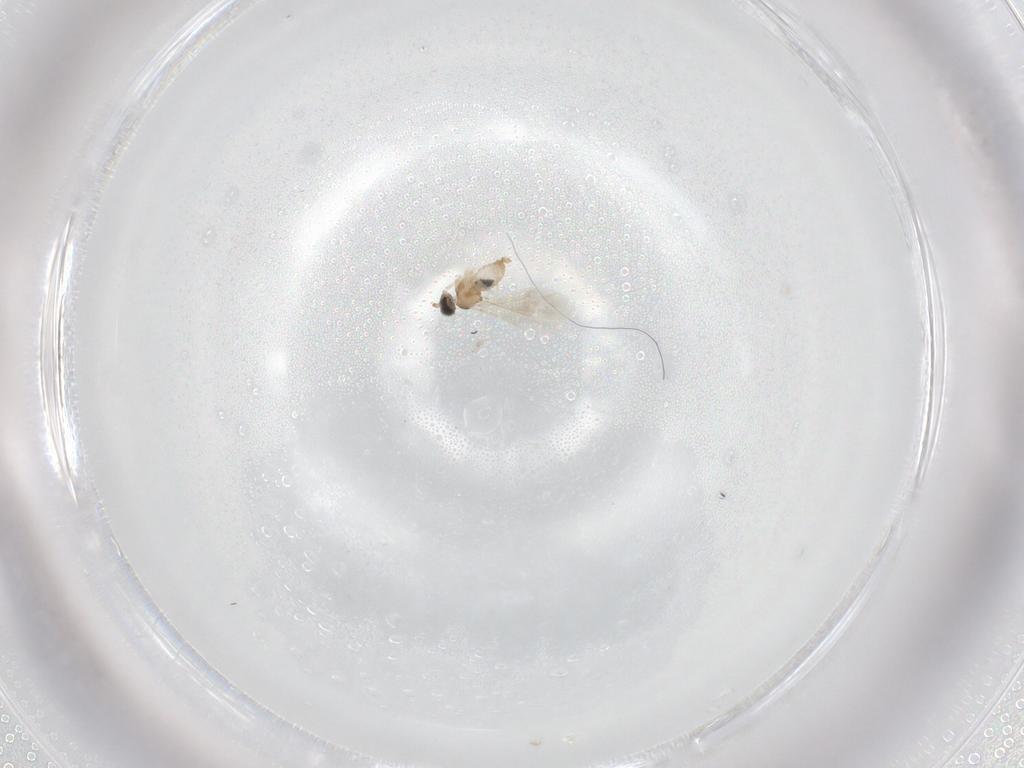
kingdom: Animalia
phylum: Arthropoda
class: Insecta
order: Diptera
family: Cecidomyiidae
